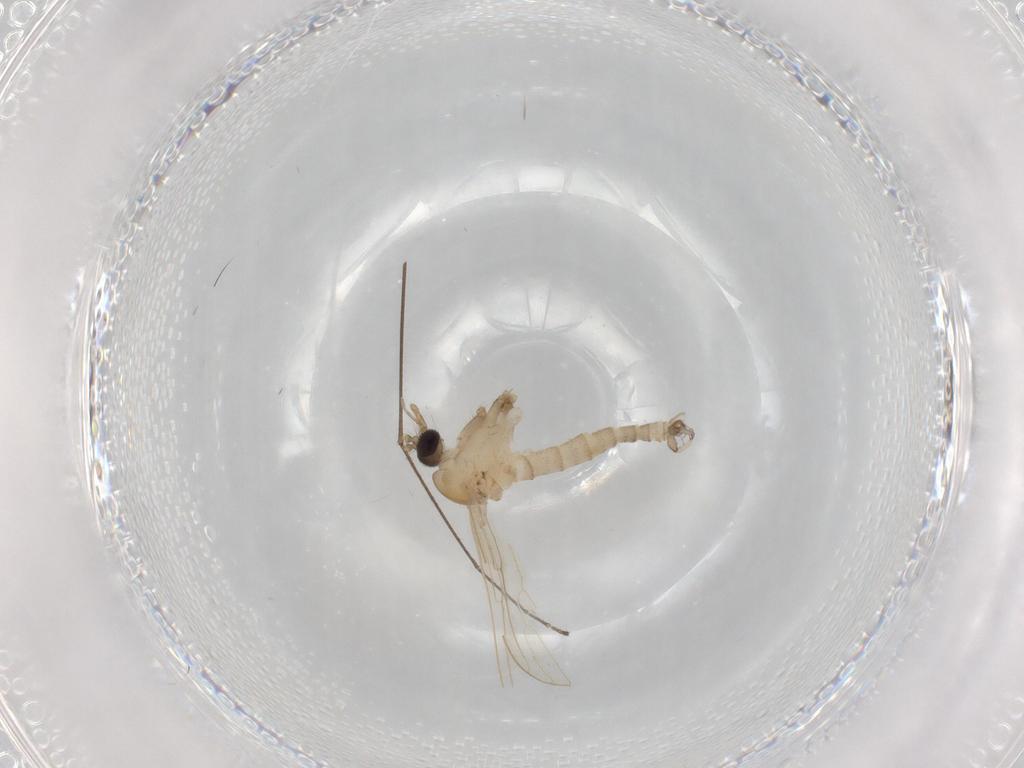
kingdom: Animalia
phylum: Arthropoda
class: Insecta
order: Diptera
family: Psychodidae
